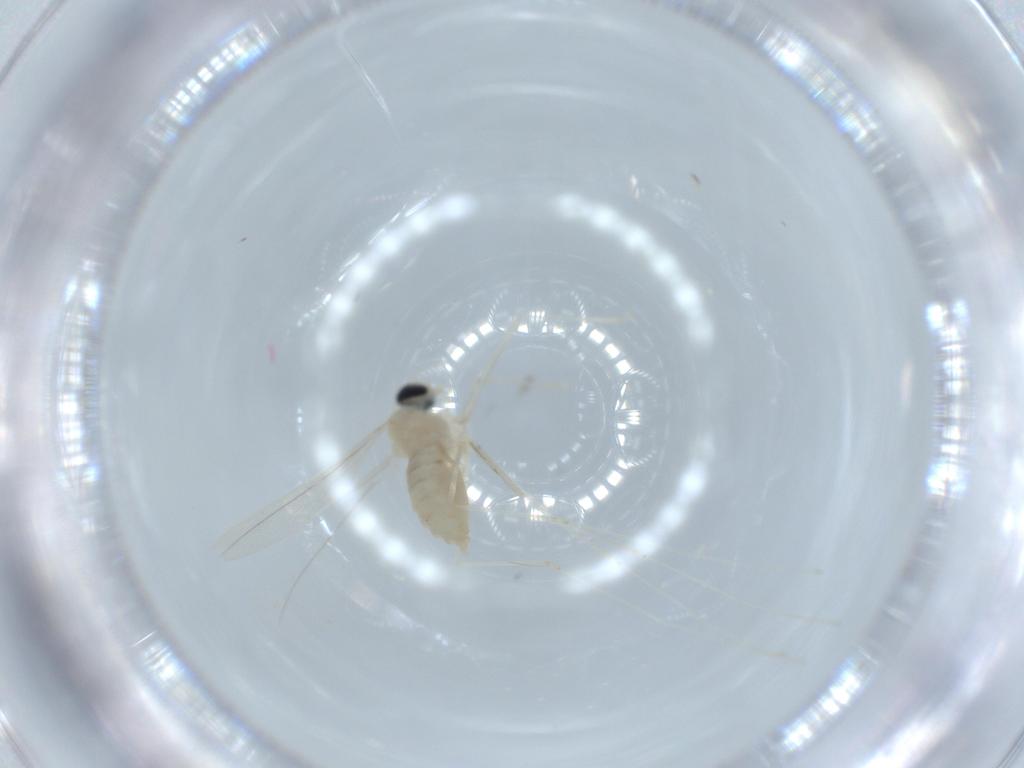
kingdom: Animalia
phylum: Arthropoda
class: Insecta
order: Diptera
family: Cecidomyiidae
